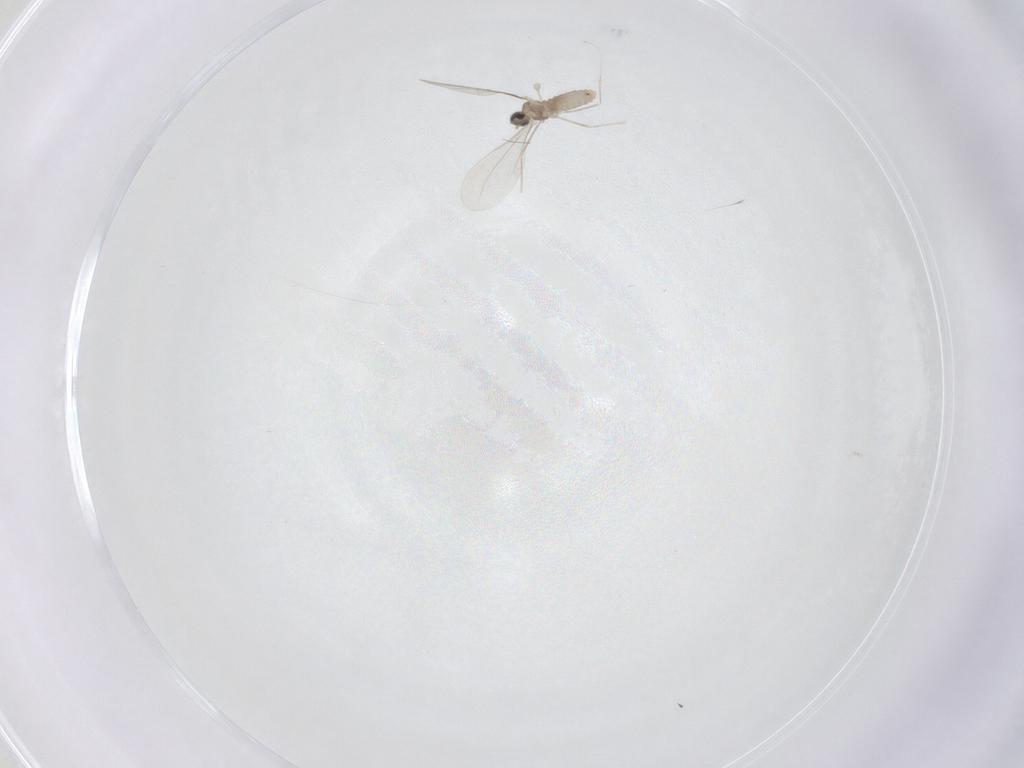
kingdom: Animalia
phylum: Arthropoda
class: Insecta
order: Diptera
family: Cecidomyiidae
